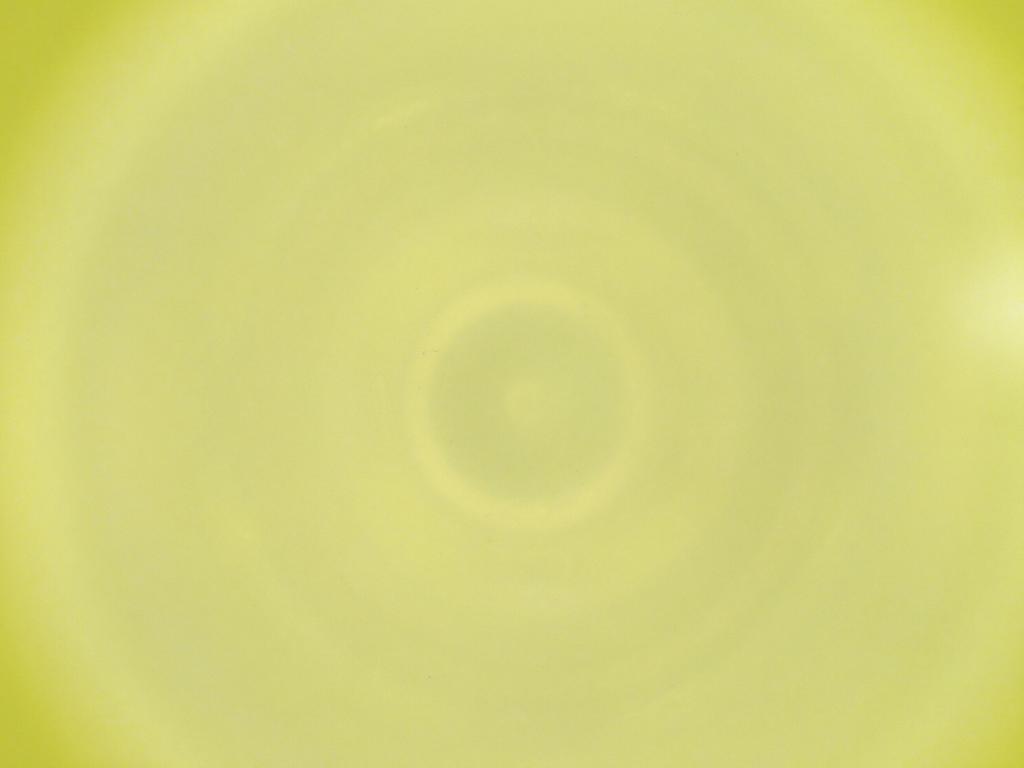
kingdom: Animalia
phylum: Arthropoda
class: Insecta
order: Diptera
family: Cecidomyiidae
